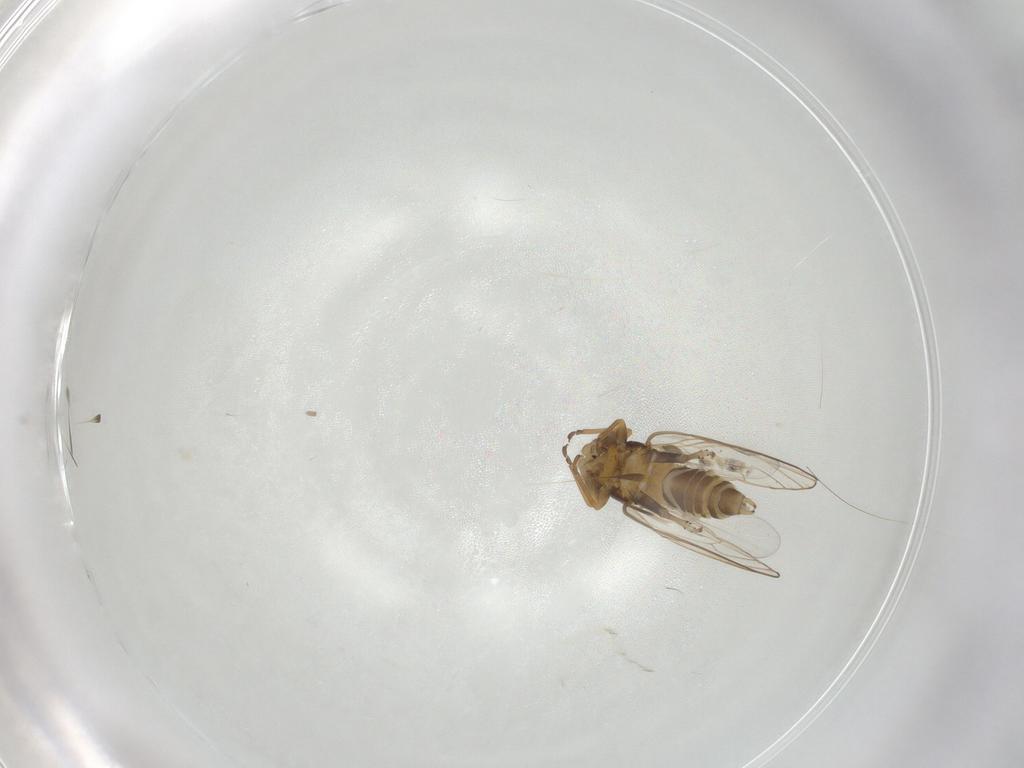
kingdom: Animalia
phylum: Arthropoda
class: Insecta
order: Diptera
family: Cecidomyiidae
